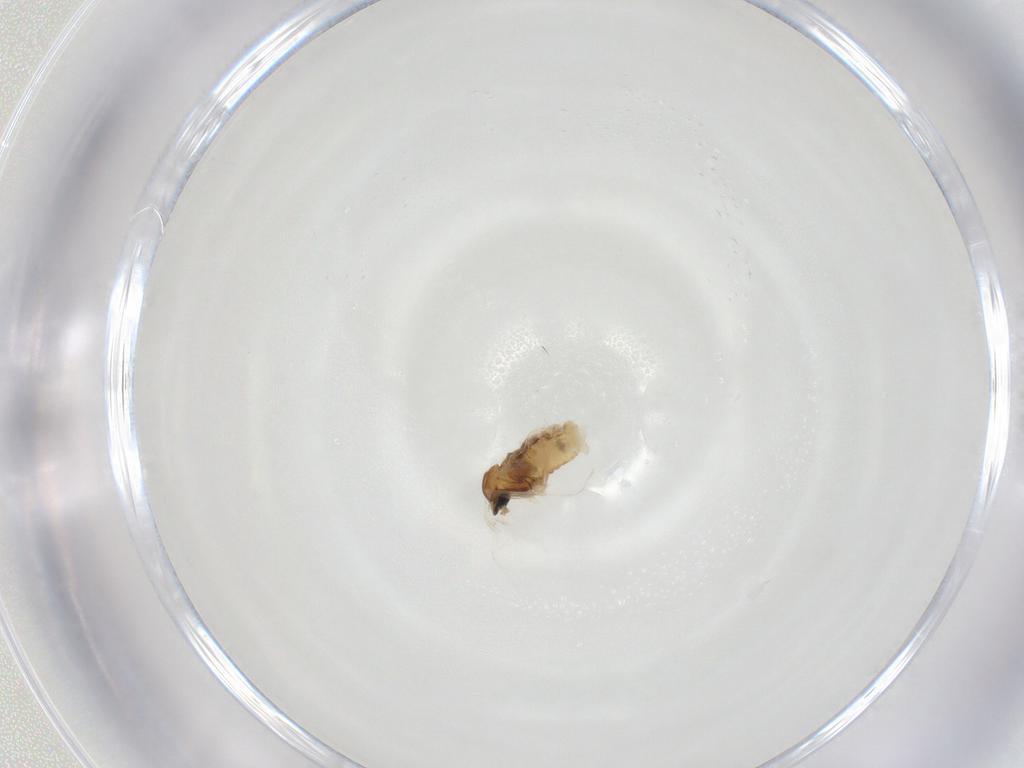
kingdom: Animalia
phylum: Arthropoda
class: Insecta
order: Diptera
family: Cecidomyiidae
